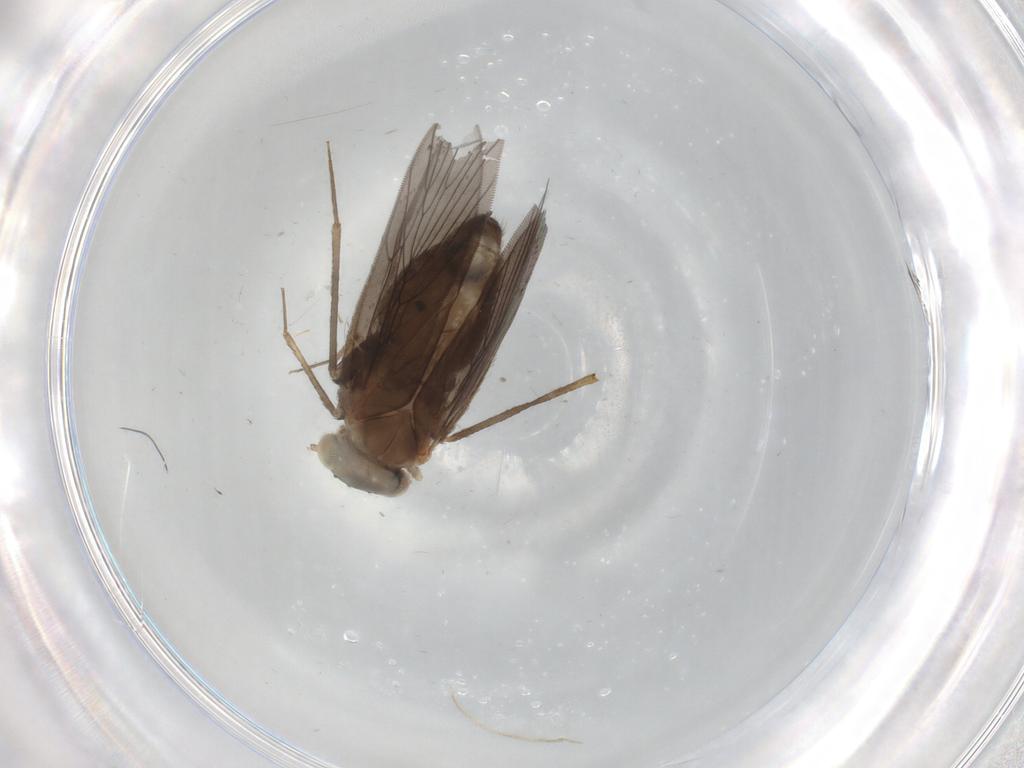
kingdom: Animalia
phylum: Arthropoda
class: Insecta
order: Psocodea
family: Lepidopsocidae
